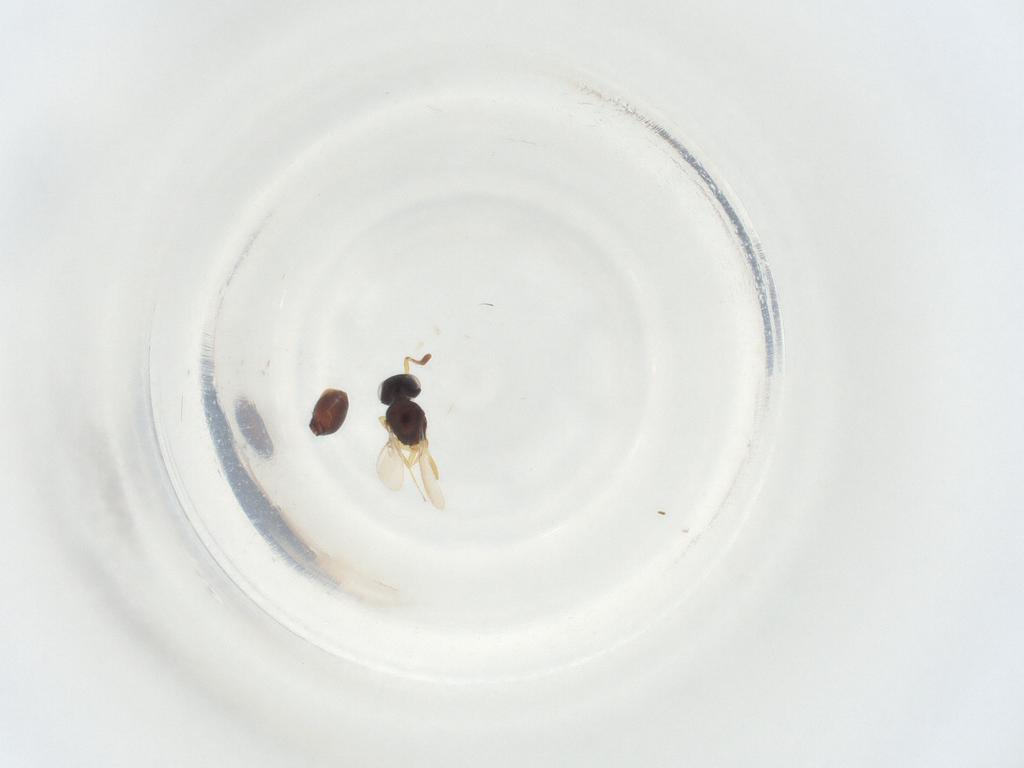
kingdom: Animalia
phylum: Arthropoda
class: Insecta
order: Hymenoptera
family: Scelionidae
